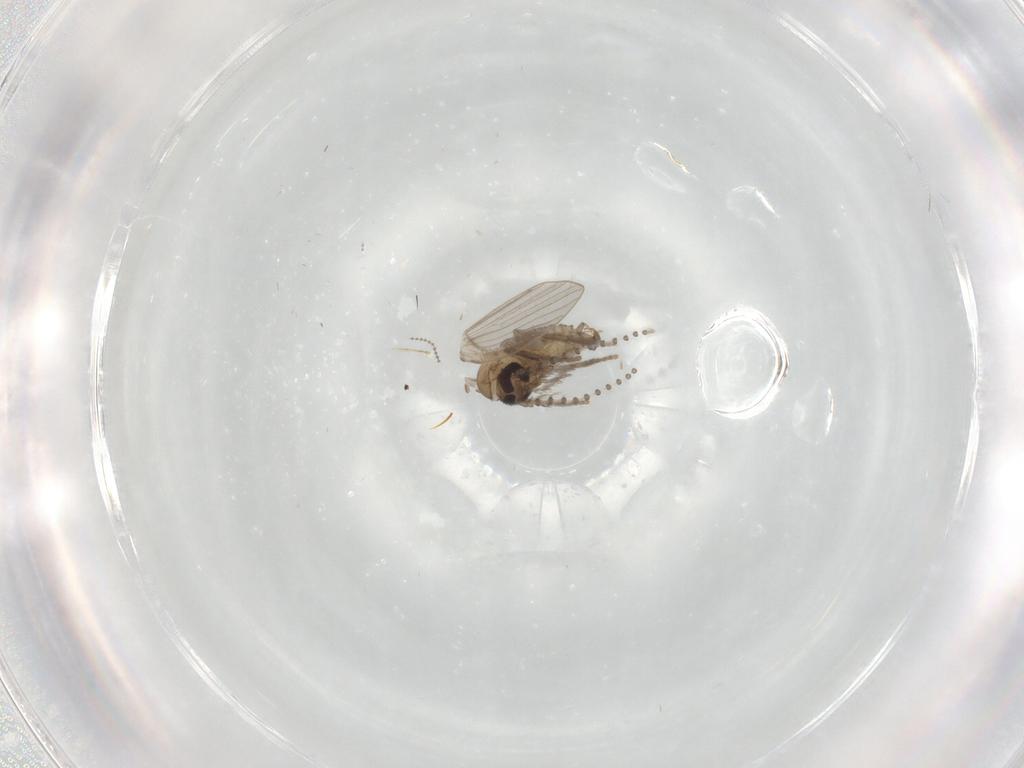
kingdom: Animalia
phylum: Arthropoda
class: Insecta
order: Diptera
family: Psychodidae
